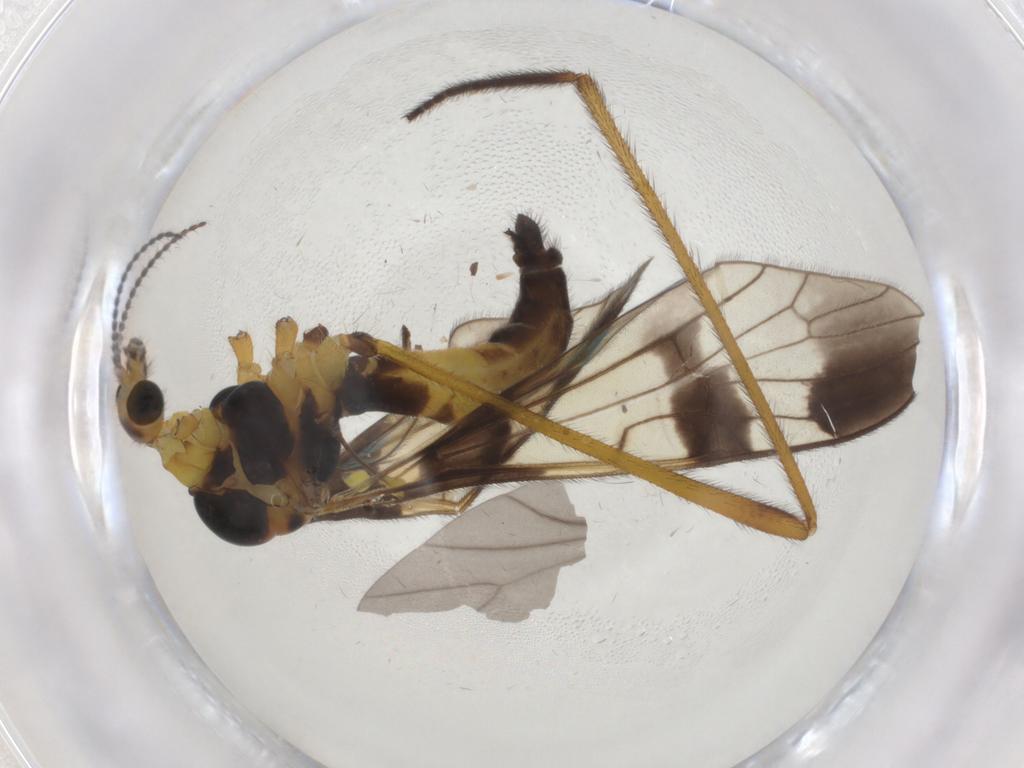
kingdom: Animalia
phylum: Arthropoda
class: Insecta
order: Diptera
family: Limoniidae
